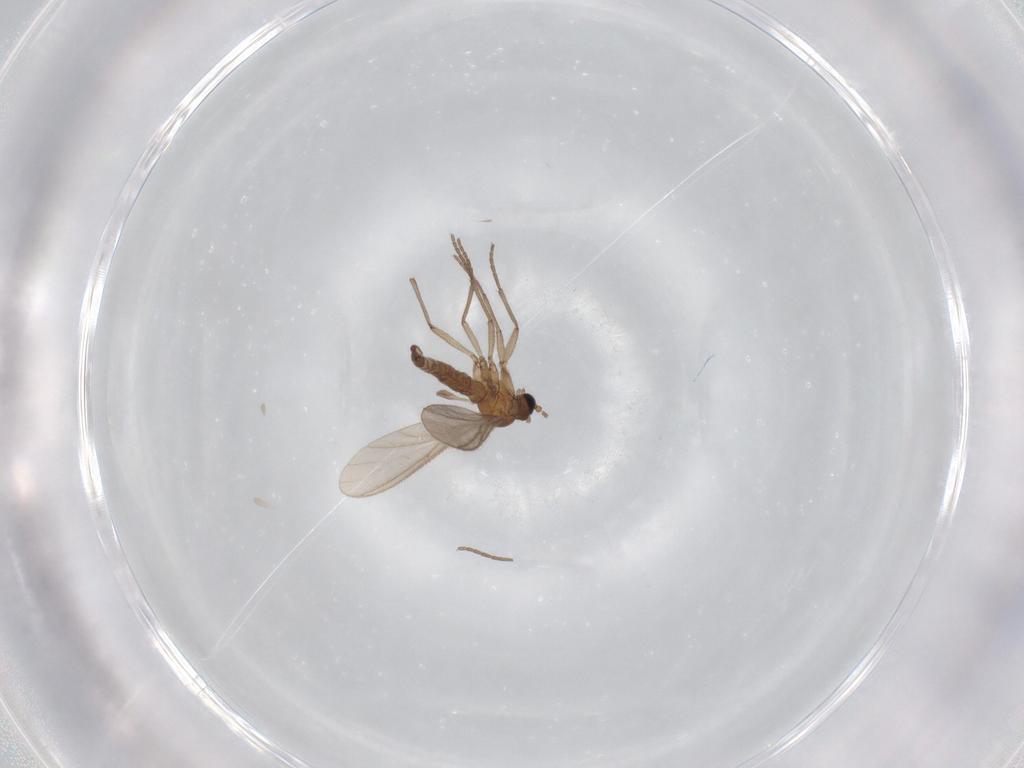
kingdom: Animalia
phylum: Arthropoda
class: Insecta
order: Diptera
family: Sciaridae
